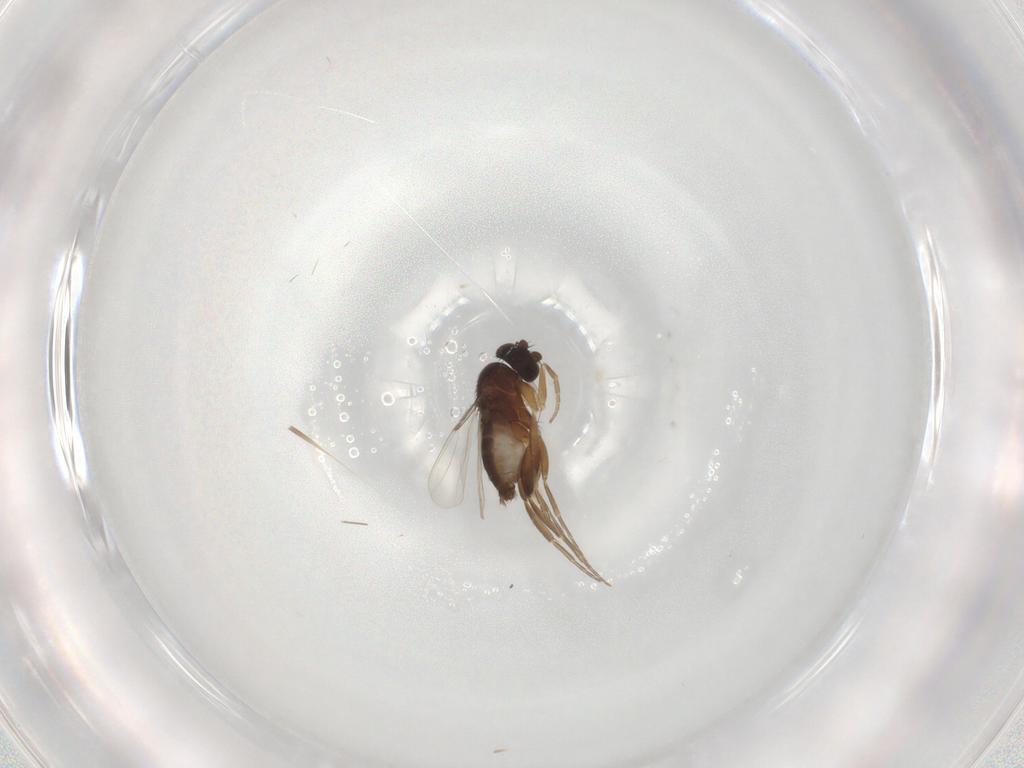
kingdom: Animalia
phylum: Arthropoda
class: Insecta
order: Diptera
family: Phoridae
